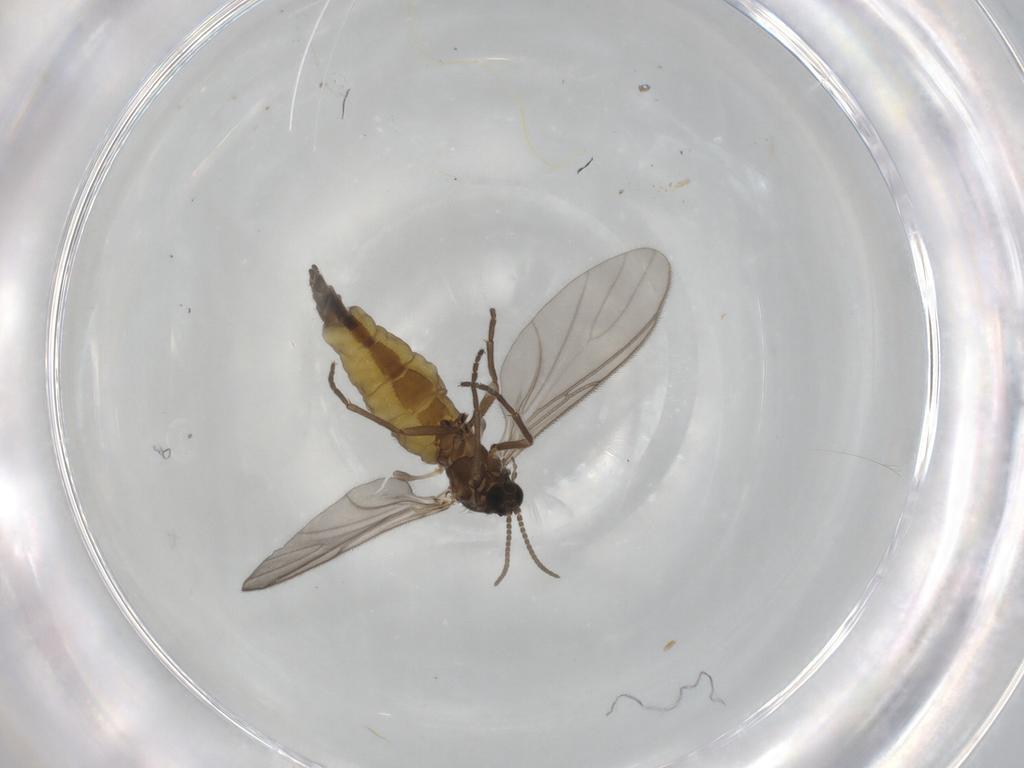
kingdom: Animalia
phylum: Arthropoda
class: Insecta
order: Diptera
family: Sciaridae
